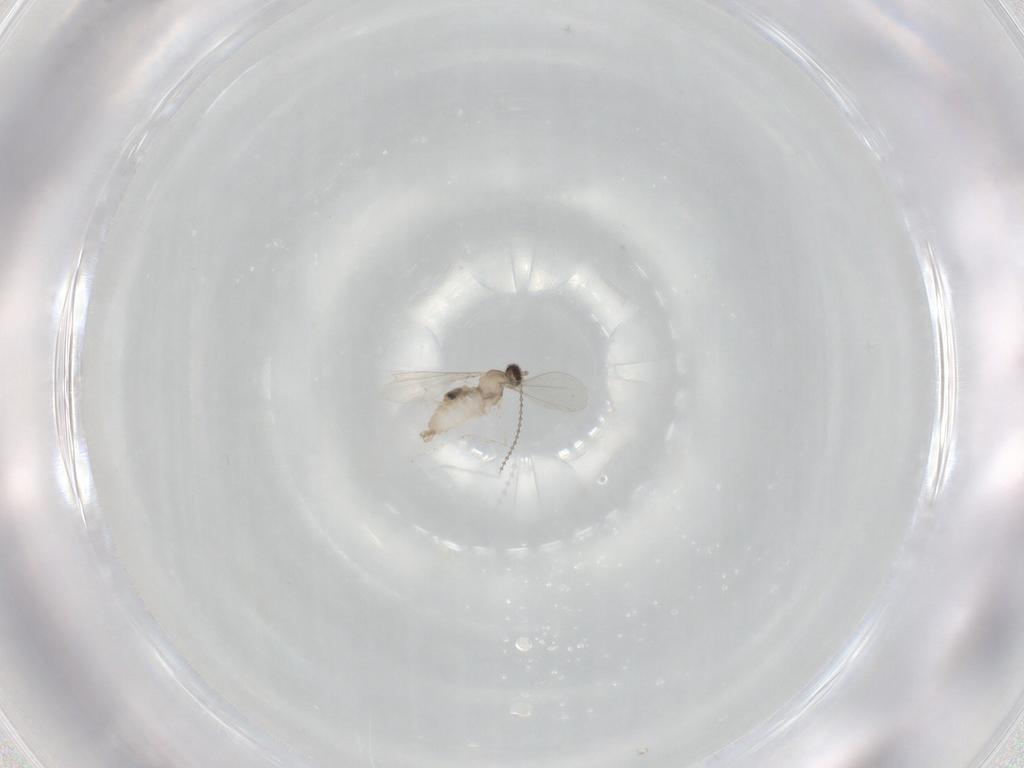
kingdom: Animalia
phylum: Arthropoda
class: Insecta
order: Diptera
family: Cecidomyiidae
